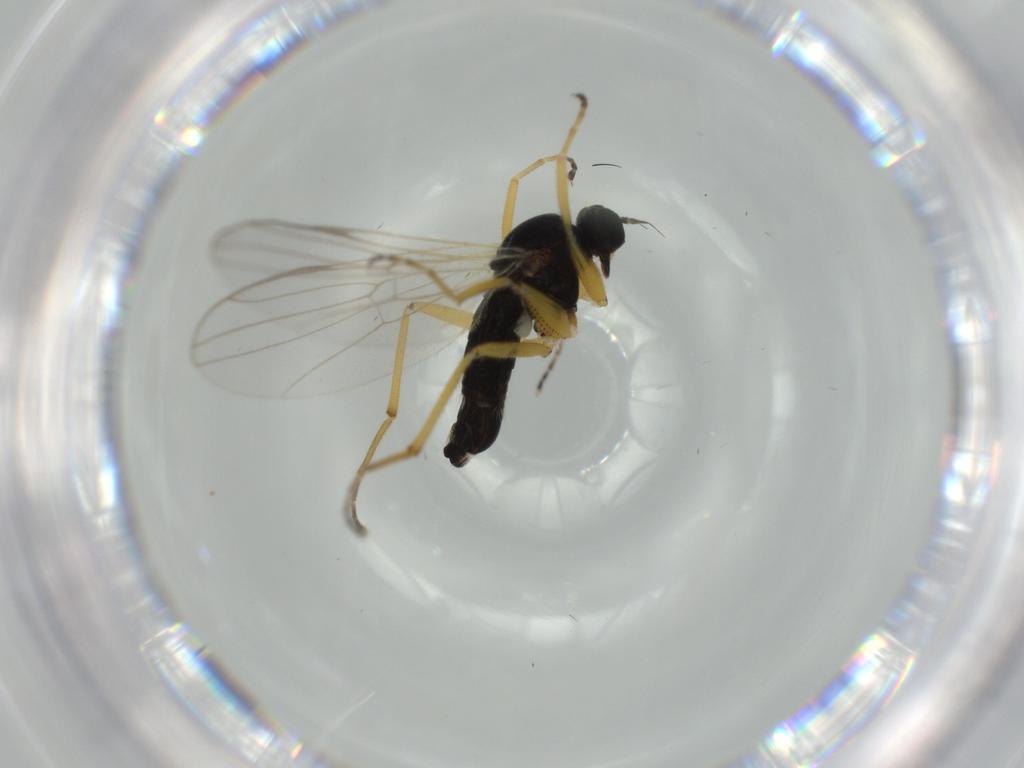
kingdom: Animalia
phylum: Arthropoda
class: Insecta
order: Diptera
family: Hybotidae
